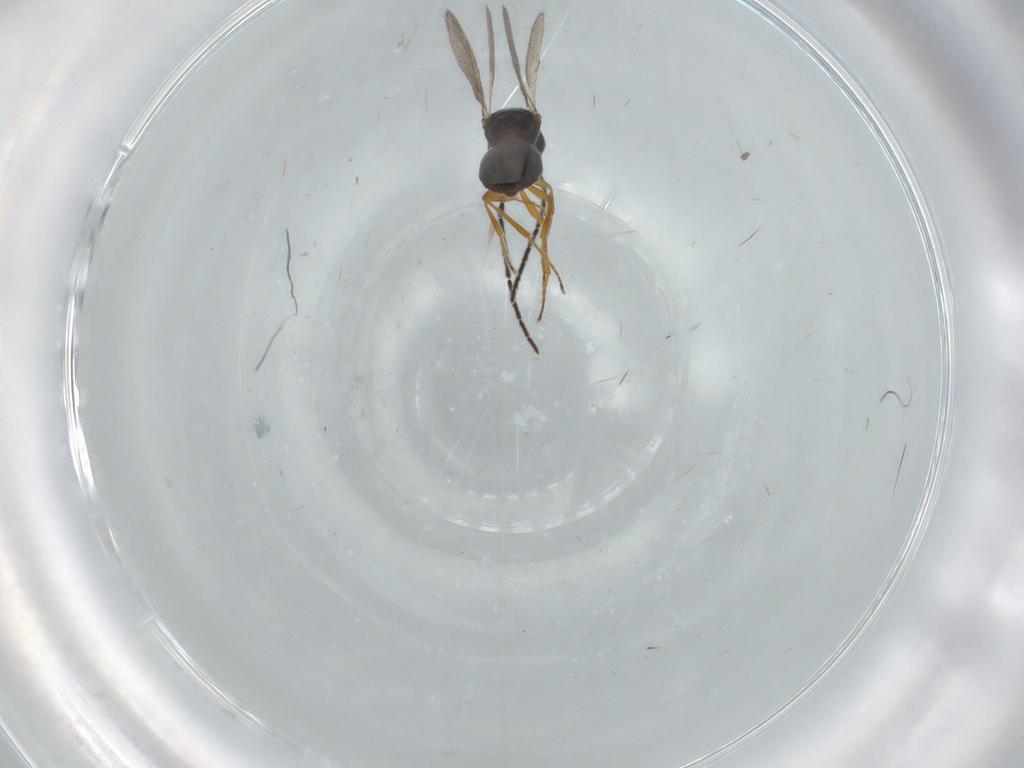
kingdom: Animalia
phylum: Arthropoda
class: Insecta
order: Hymenoptera
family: Scelionidae
